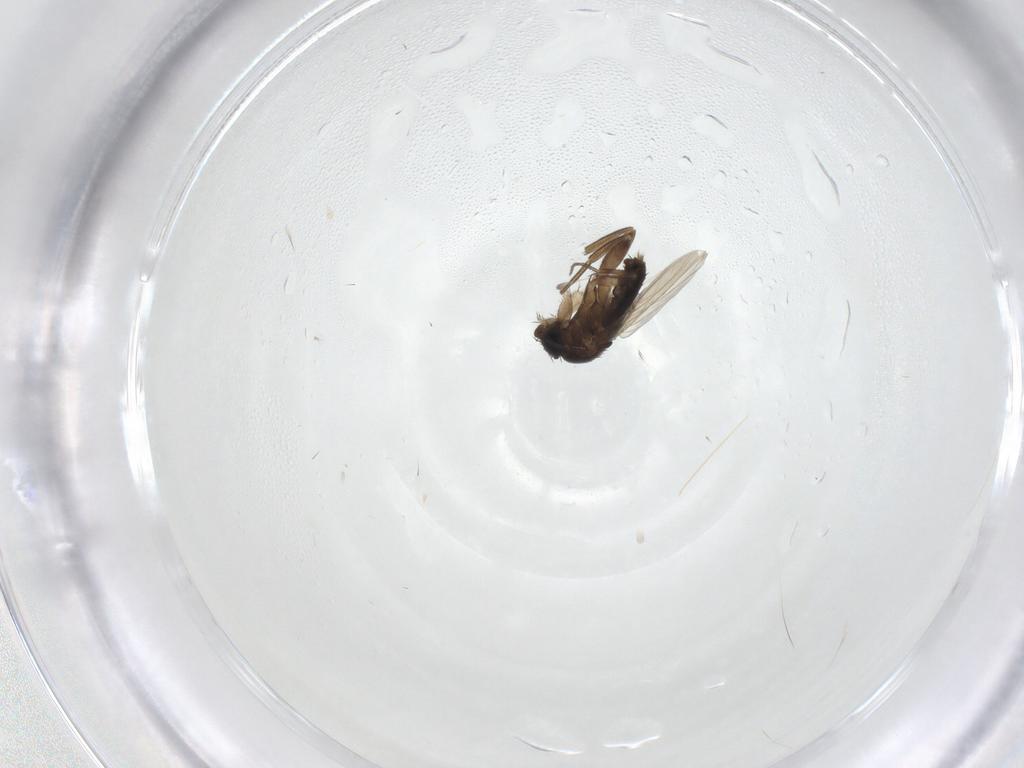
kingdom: Animalia
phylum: Arthropoda
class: Insecta
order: Diptera
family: Phoridae
